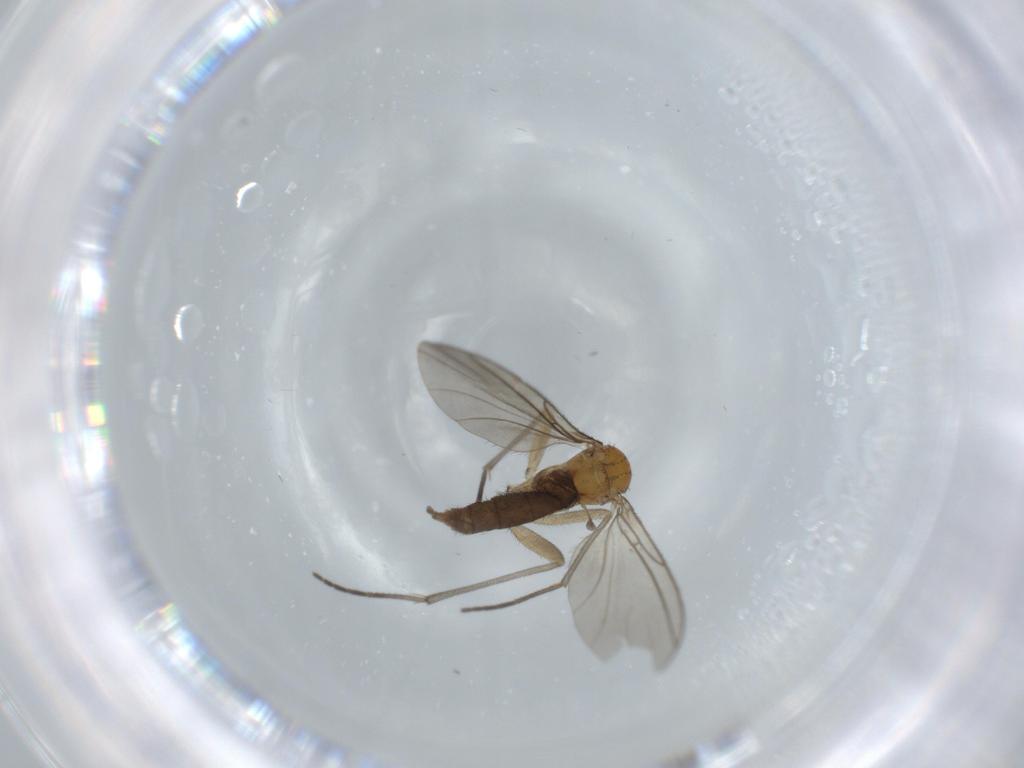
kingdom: Animalia
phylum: Arthropoda
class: Insecta
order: Diptera
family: Sciaridae
